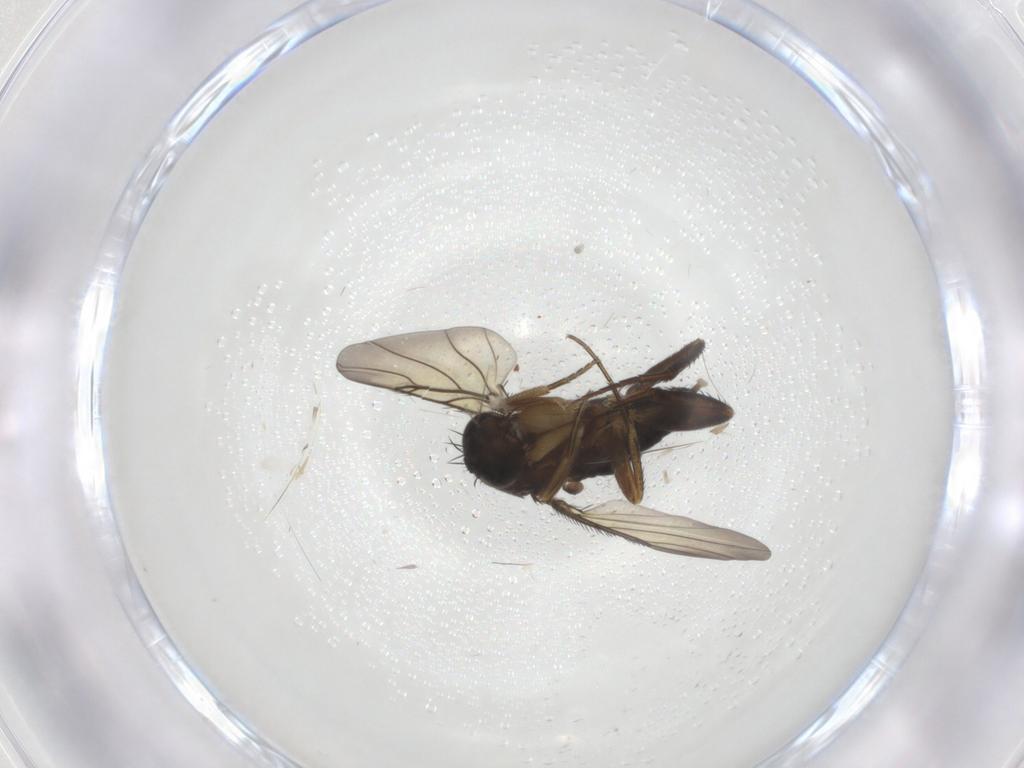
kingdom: Animalia
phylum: Arthropoda
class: Insecta
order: Diptera
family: Phoridae
